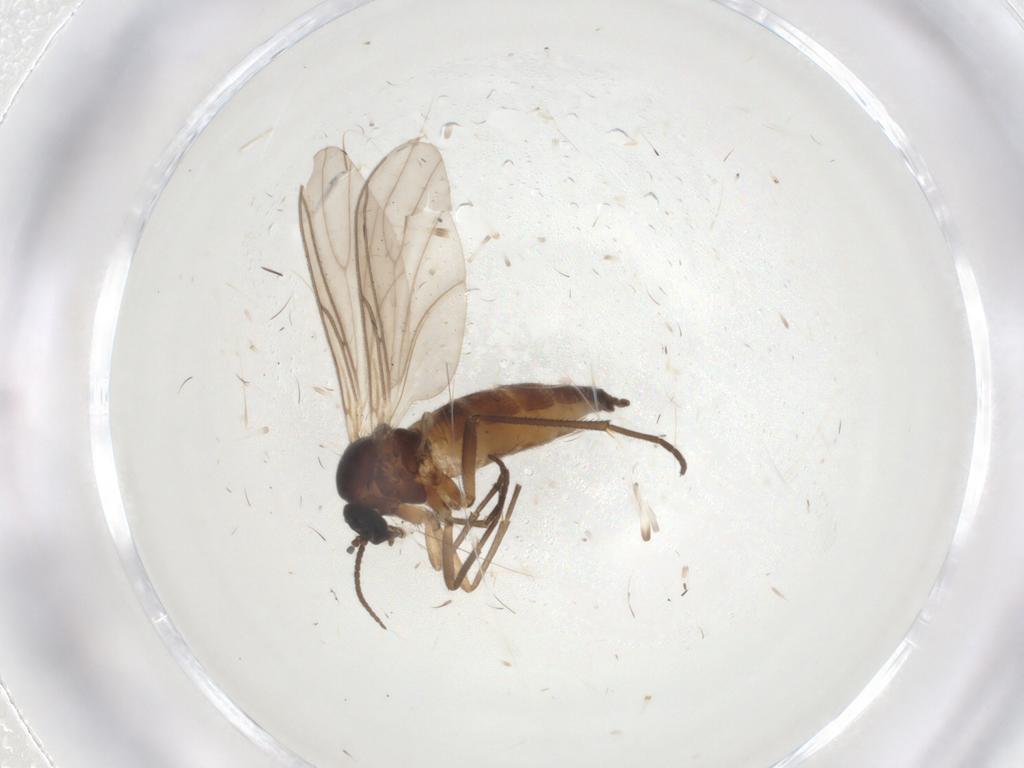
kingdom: Animalia
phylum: Arthropoda
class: Insecta
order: Diptera
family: Sciaridae
